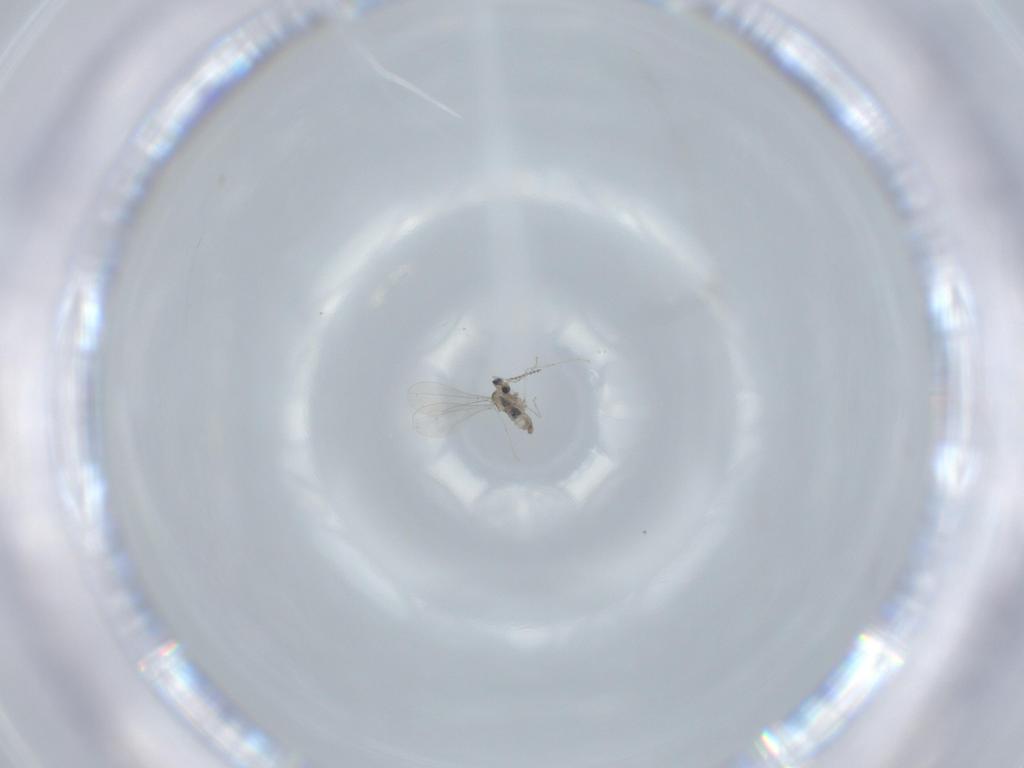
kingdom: Animalia
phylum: Arthropoda
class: Insecta
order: Diptera
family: Cecidomyiidae
